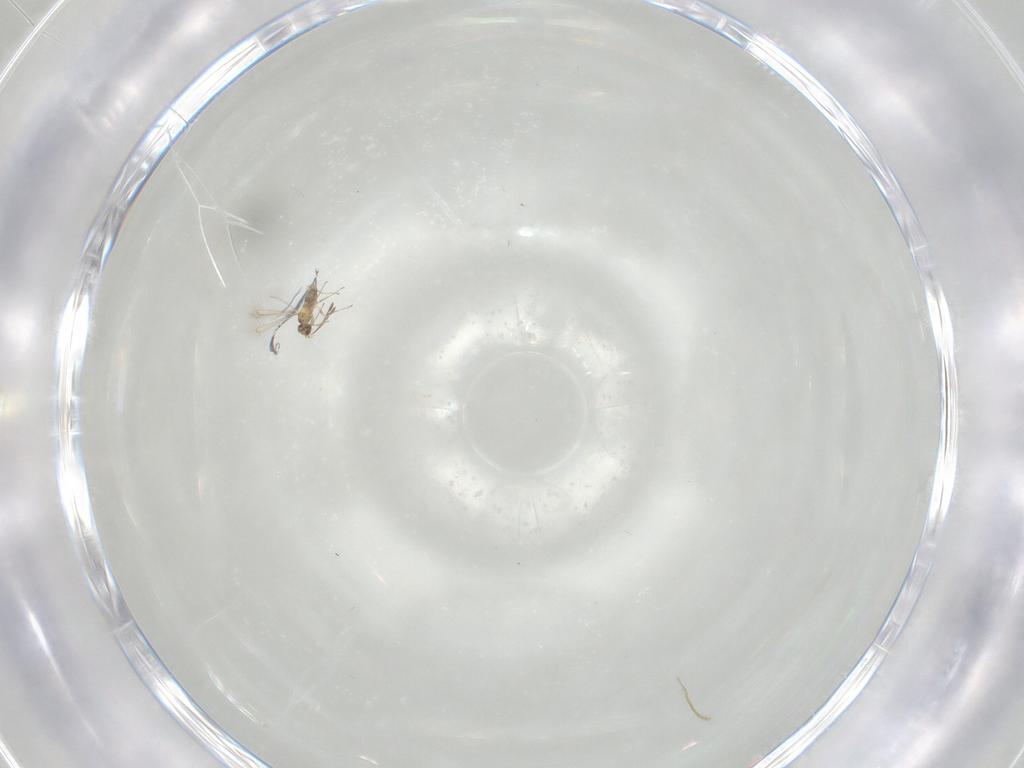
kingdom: Animalia
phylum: Arthropoda
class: Insecta
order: Hymenoptera
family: Mymaridae
